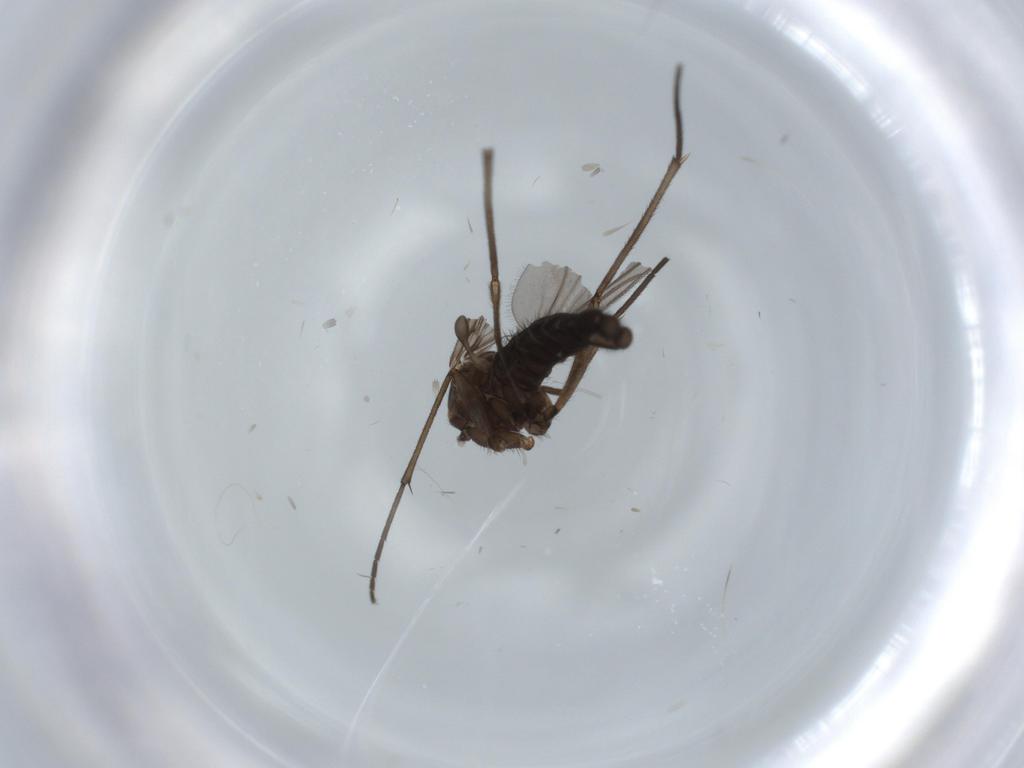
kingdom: Animalia
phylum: Arthropoda
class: Insecta
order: Diptera
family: Sciaridae
